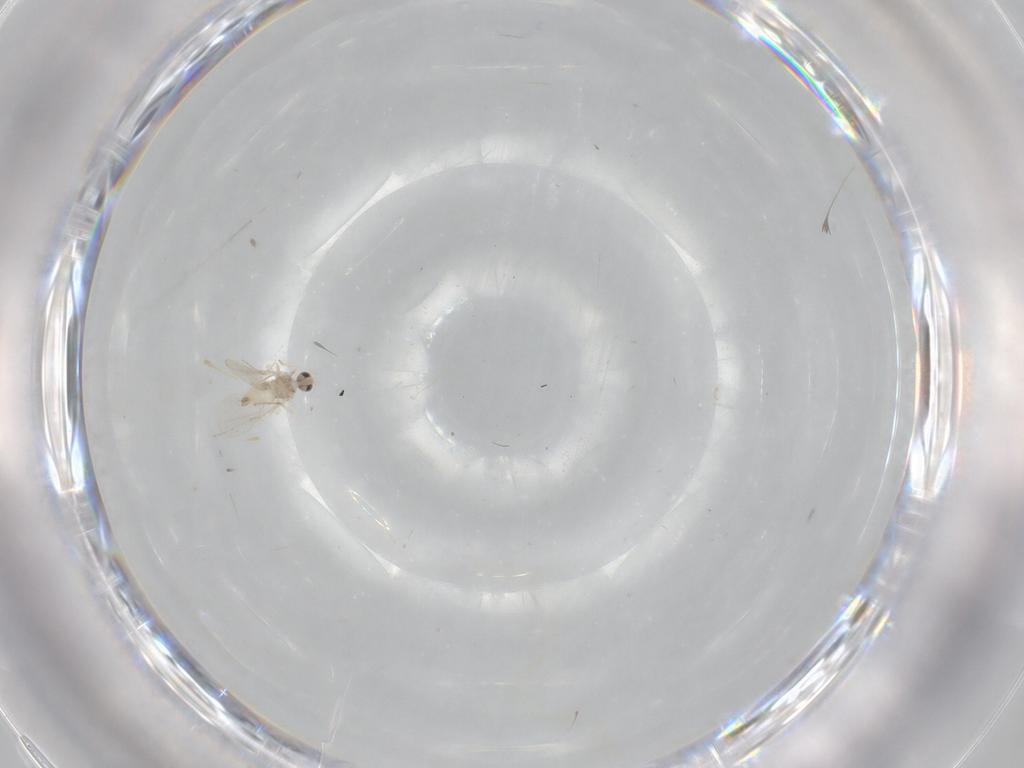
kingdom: Animalia
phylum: Arthropoda
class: Insecta
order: Diptera
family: Cecidomyiidae
